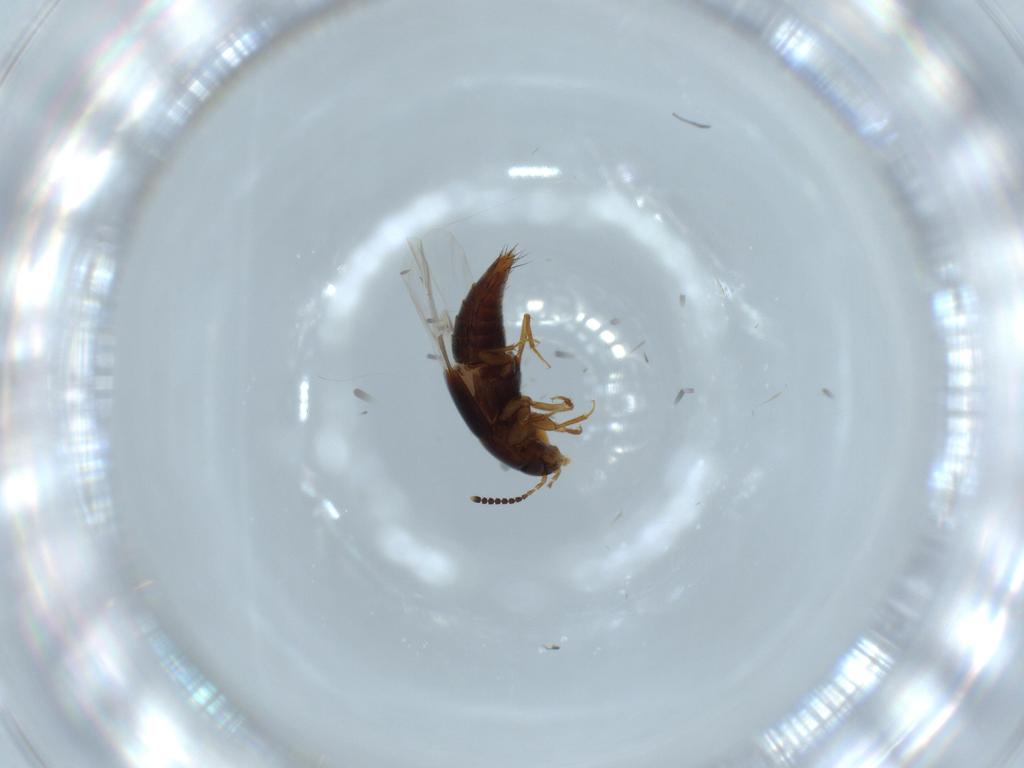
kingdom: Animalia
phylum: Arthropoda
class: Insecta
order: Coleoptera
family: Staphylinidae
